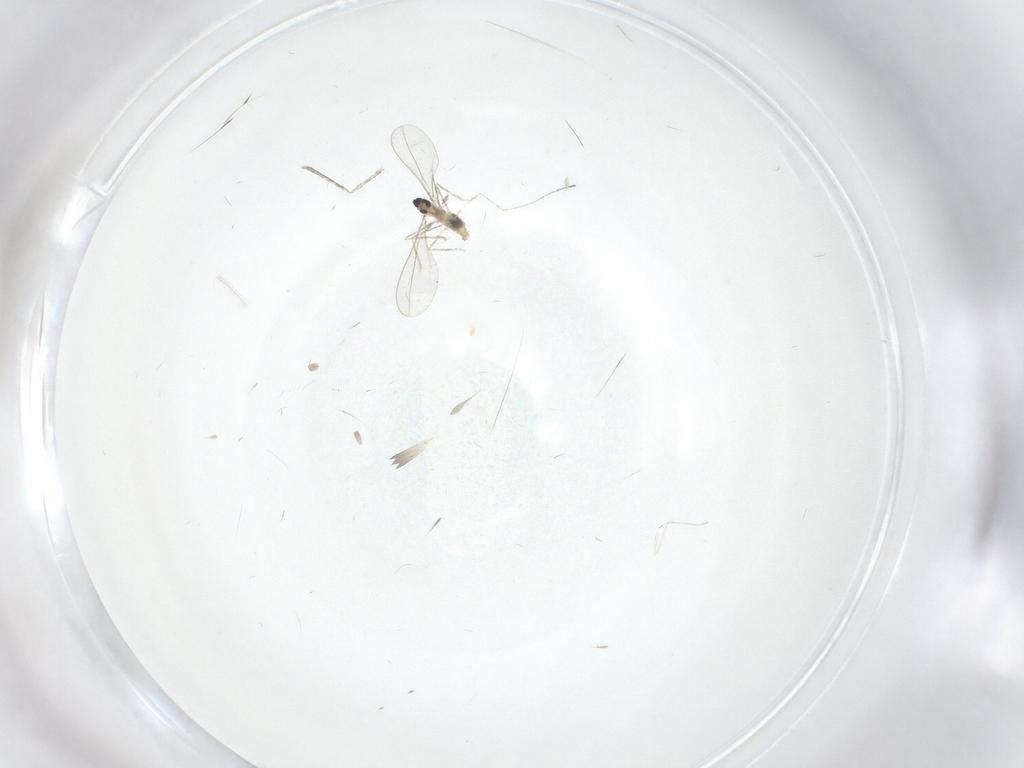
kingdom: Animalia
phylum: Arthropoda
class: Insecta
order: Diptera
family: Cecidomyiidae
